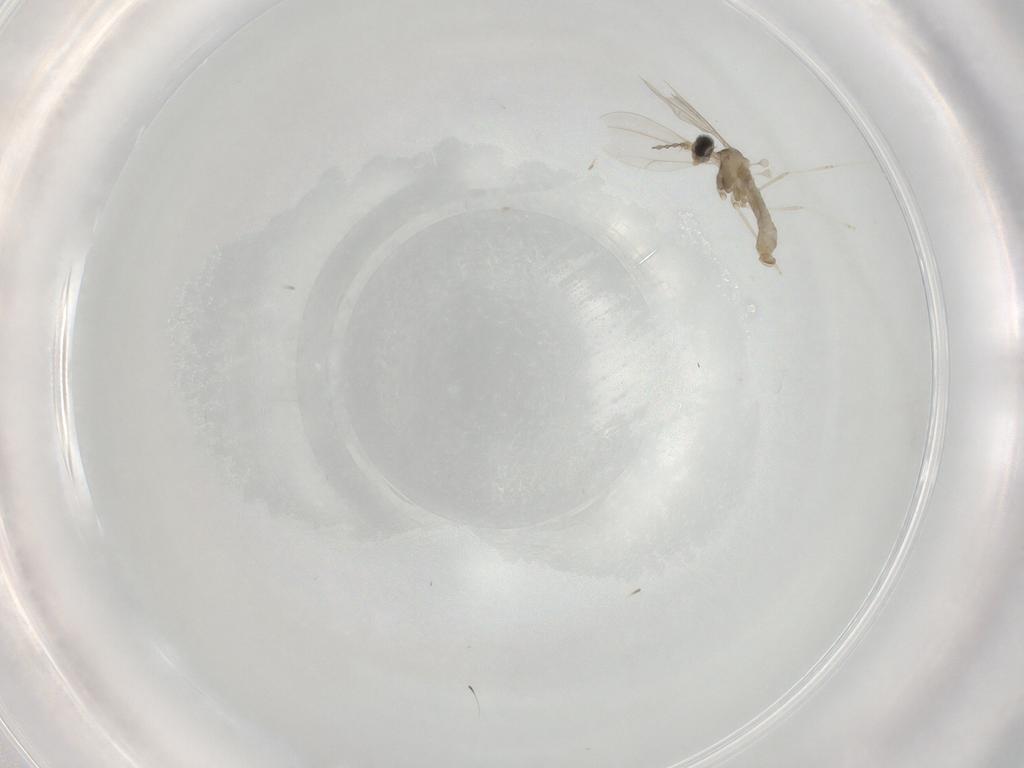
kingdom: Animalia
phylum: Arthropoda
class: Insecta
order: Diptera
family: Cecidomyiidae
